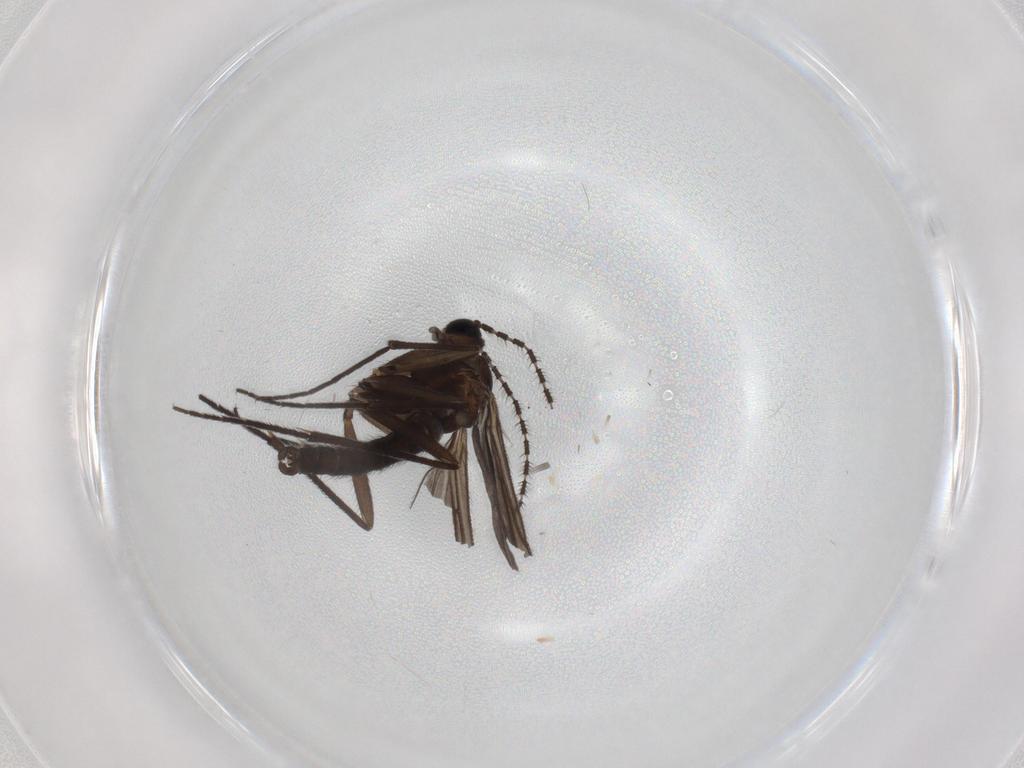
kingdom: Animalia
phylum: Arthropoda
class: Insecta
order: Diptera
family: Sciaridae
